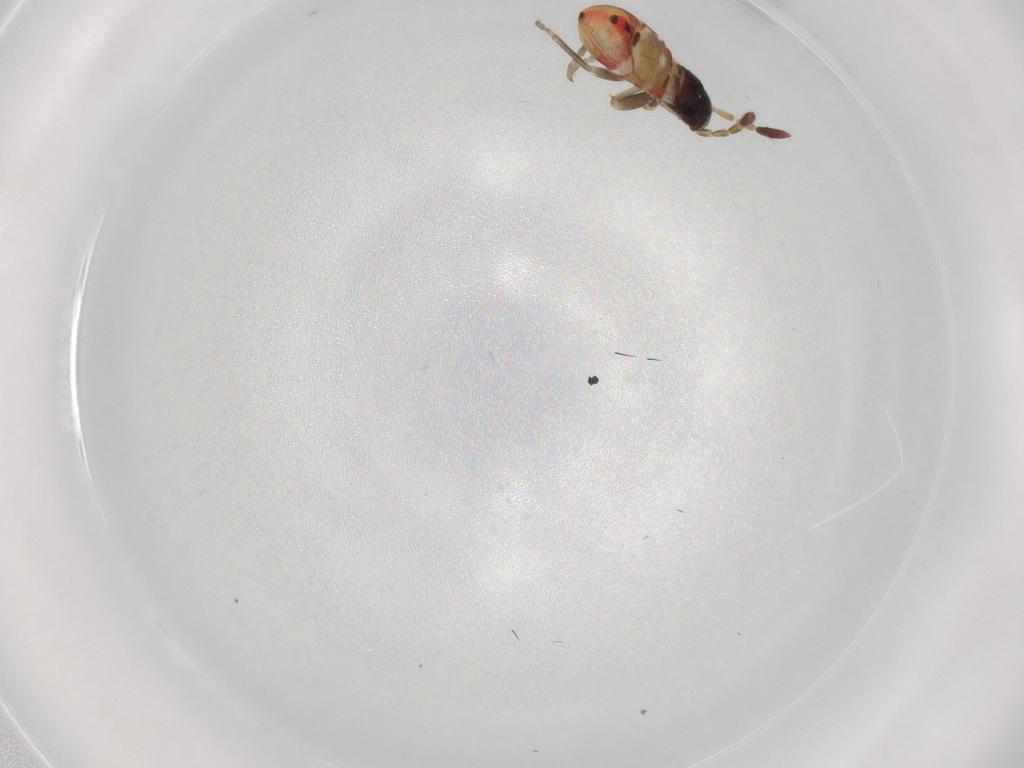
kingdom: Animalia
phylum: Arthropoda
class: Insecta
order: Hemiptera
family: Rhyparochromidae
